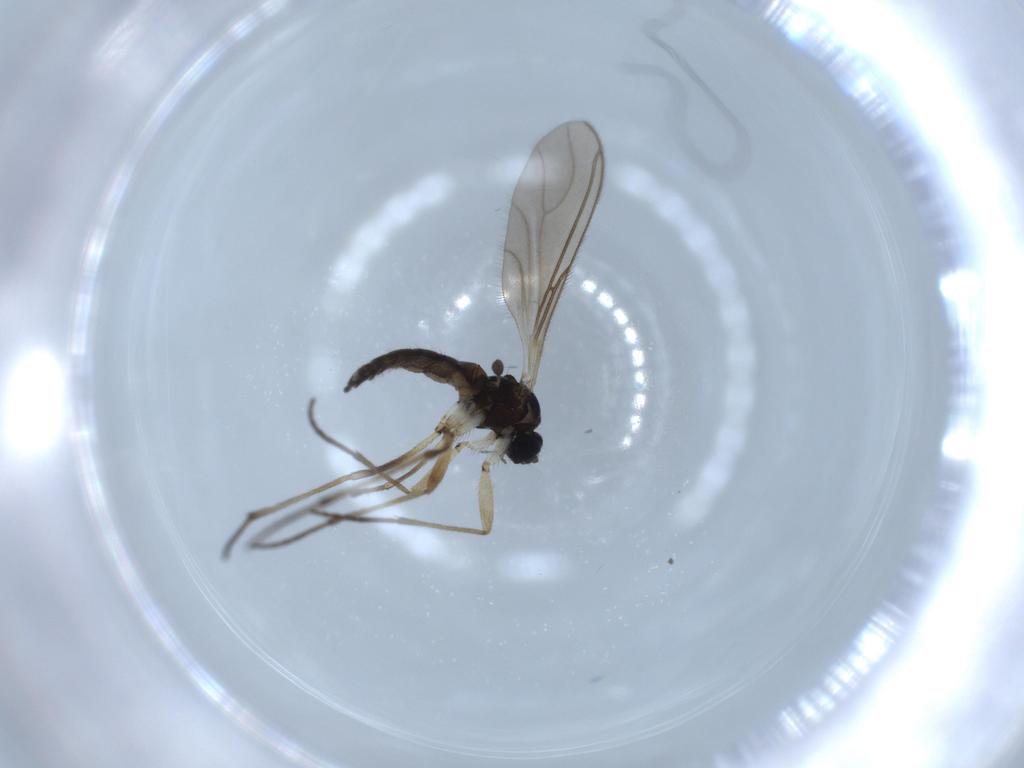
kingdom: Animalia
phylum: Arthropoda
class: Insecta
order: Diptera
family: Sciaridae
